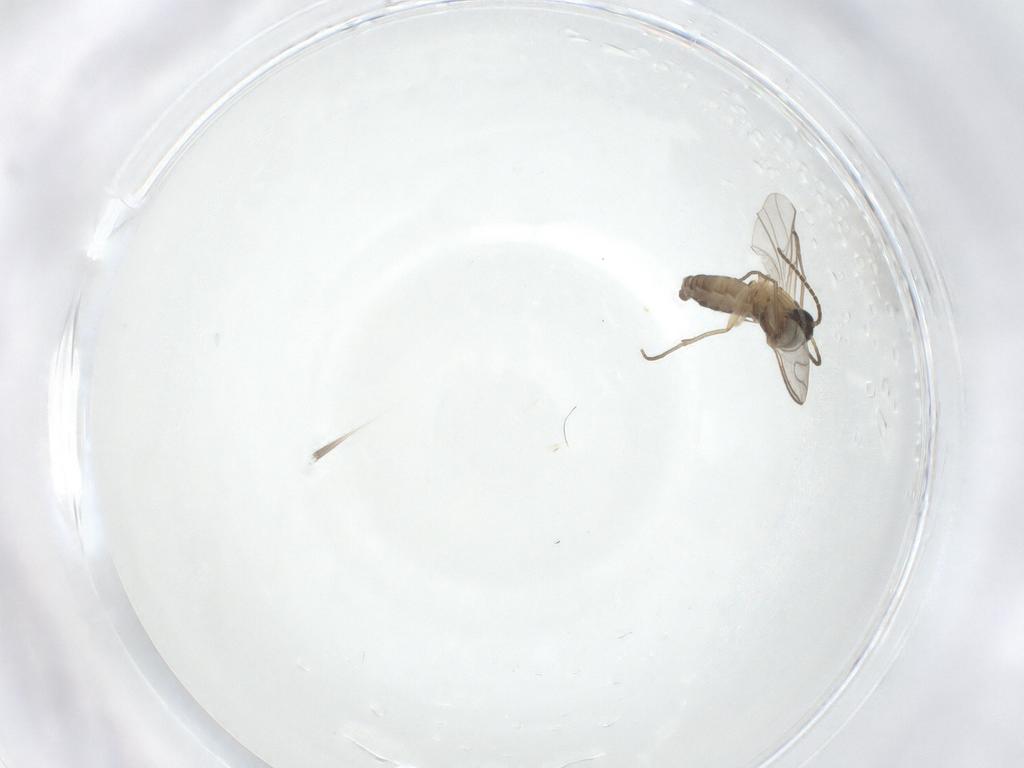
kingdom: Animalia
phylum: Arthropoda
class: Insecta
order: Diptera
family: Sciaridae
